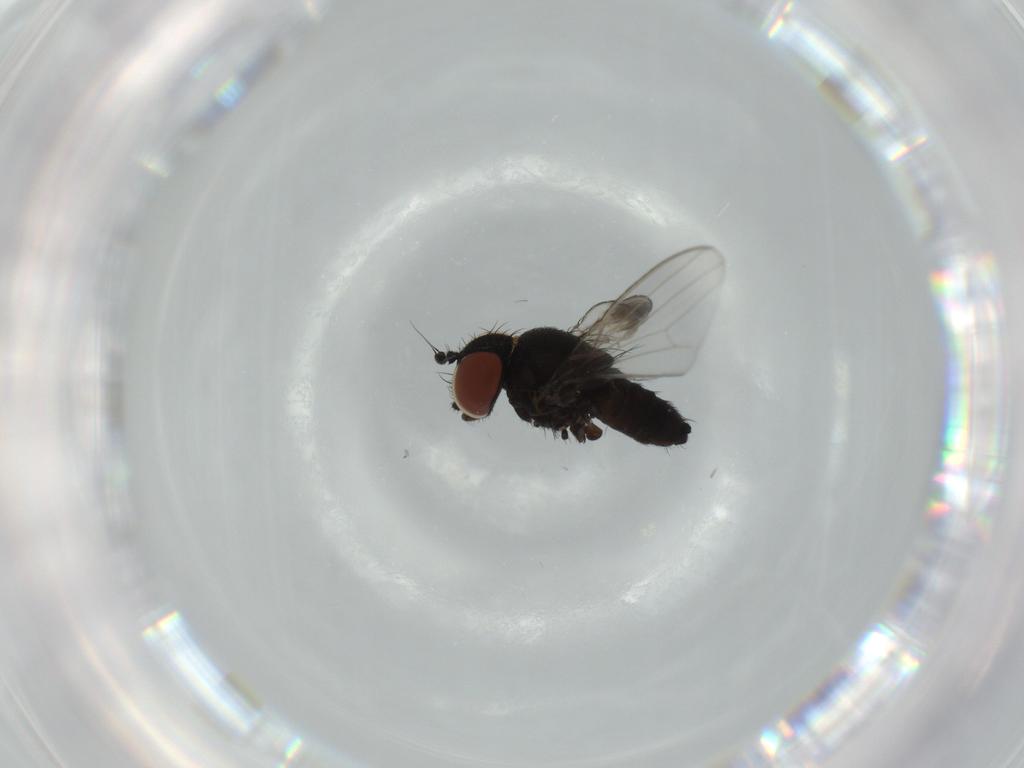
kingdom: Animalia
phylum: Arthropoda
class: Insecta
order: Diptera
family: Milichiidae
